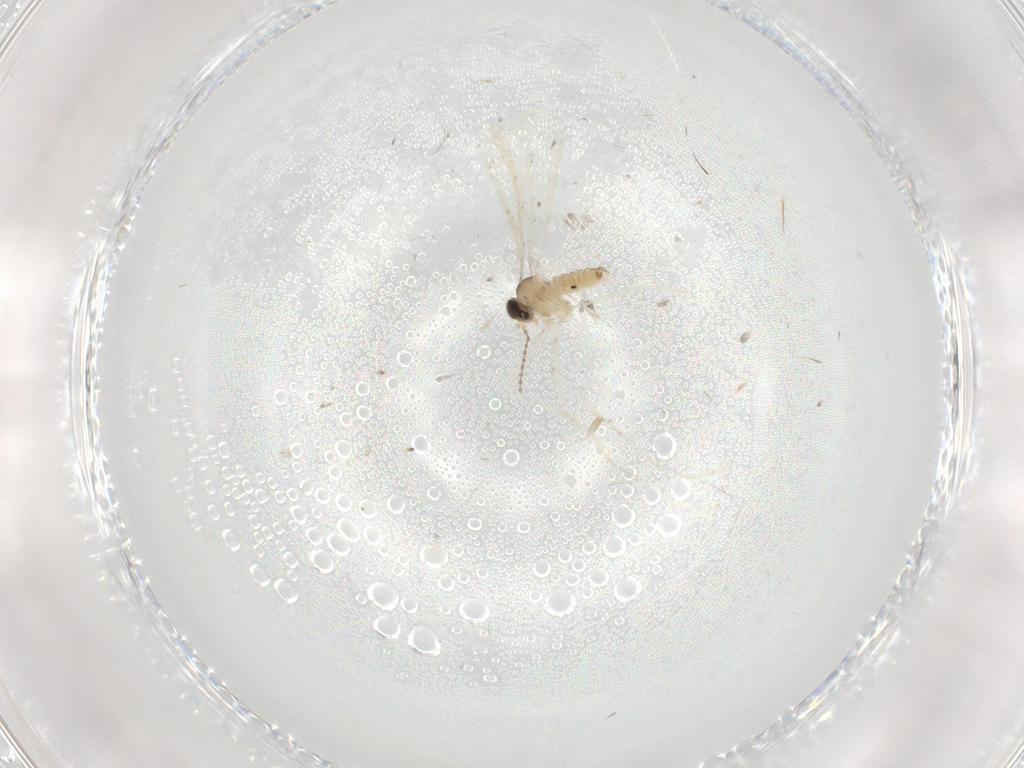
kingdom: Animalia
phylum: Arthropoda
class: Insecta
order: Diptera
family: Cecidomyiidae
